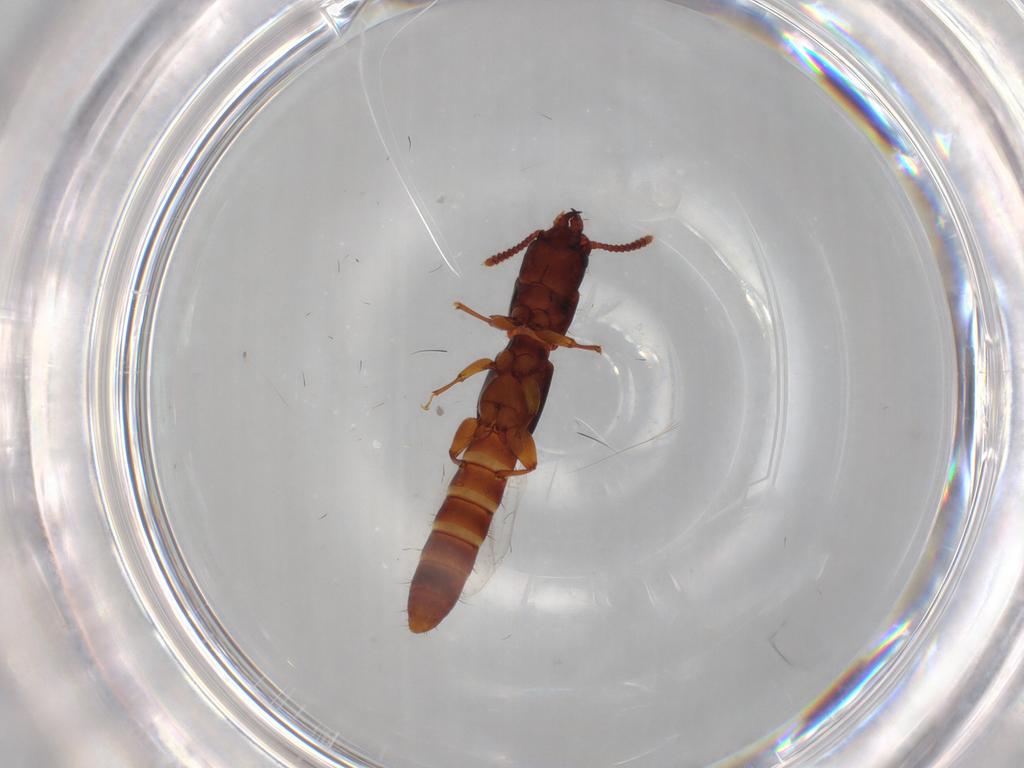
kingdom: Animalia
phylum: Arthropoda
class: Insecta
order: Coleoptera
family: Staphylinidae
